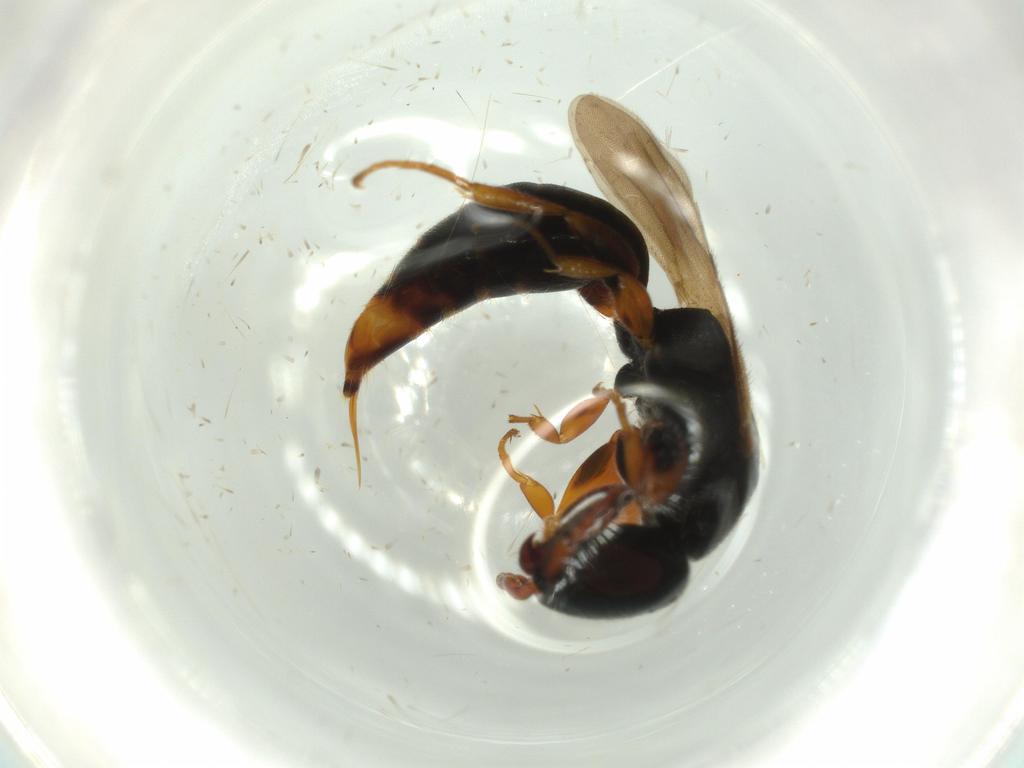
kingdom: Animalia
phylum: Arthropoda
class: Insecta
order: Hymenoptera
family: Bethylidae
